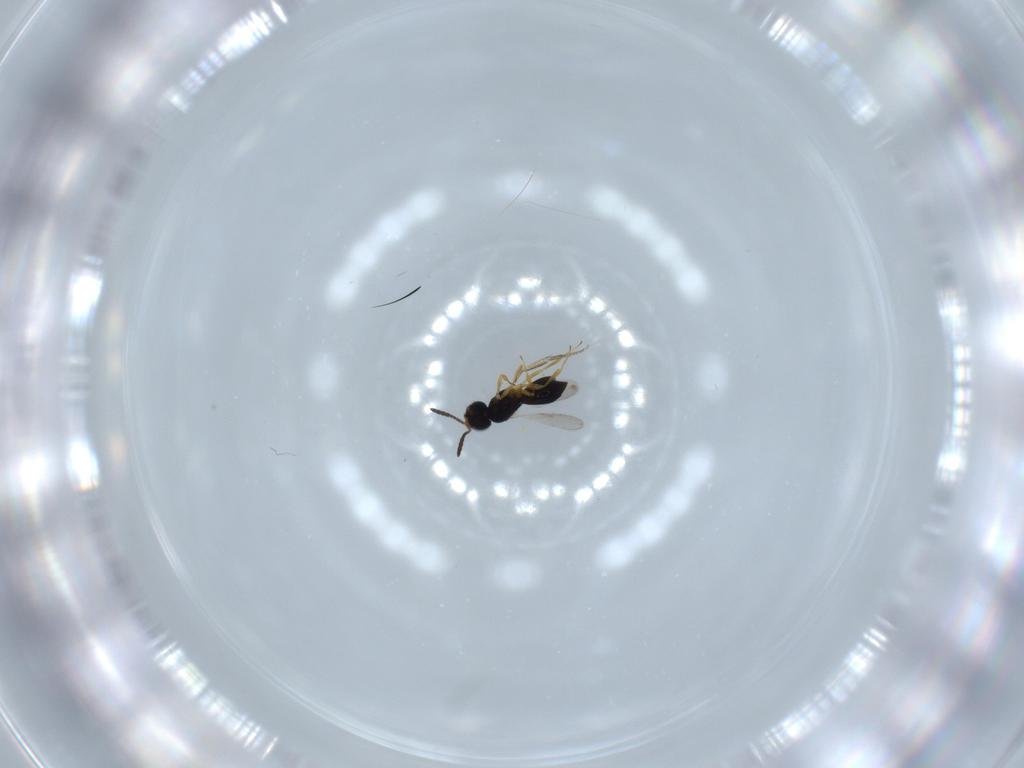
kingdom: Animalia
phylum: Arthropoda
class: Insecta
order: Hymenoptera
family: Scelionidae
